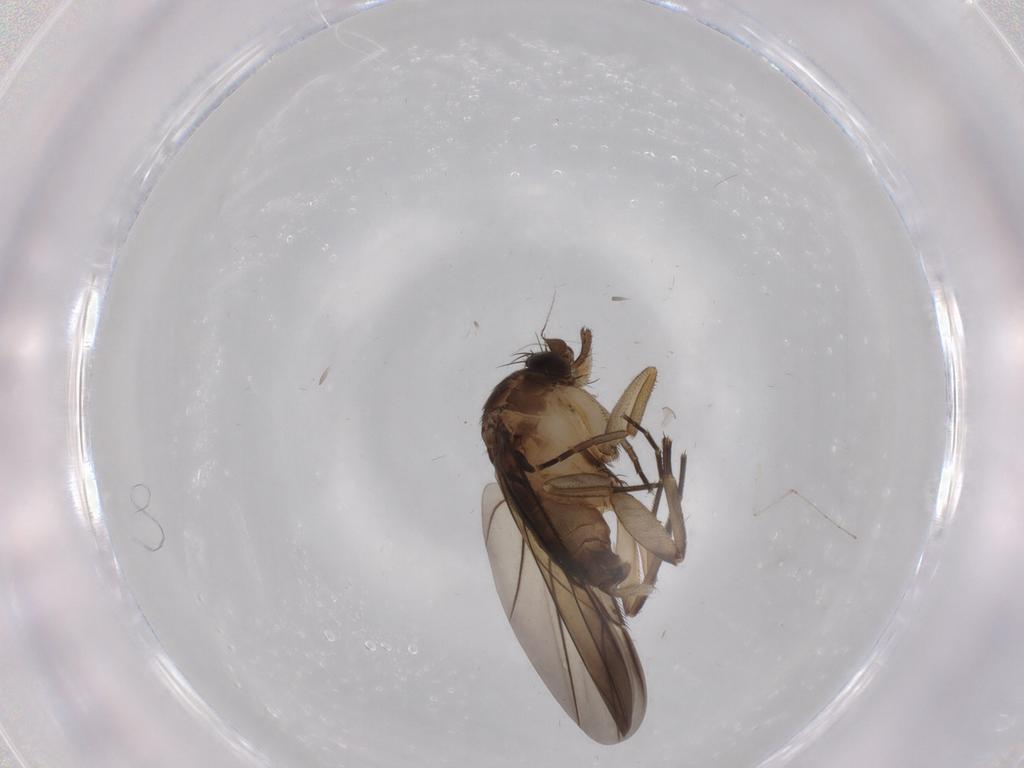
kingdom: Animalia
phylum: Arthropoda
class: Insecta
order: Diptera
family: Phoridae
